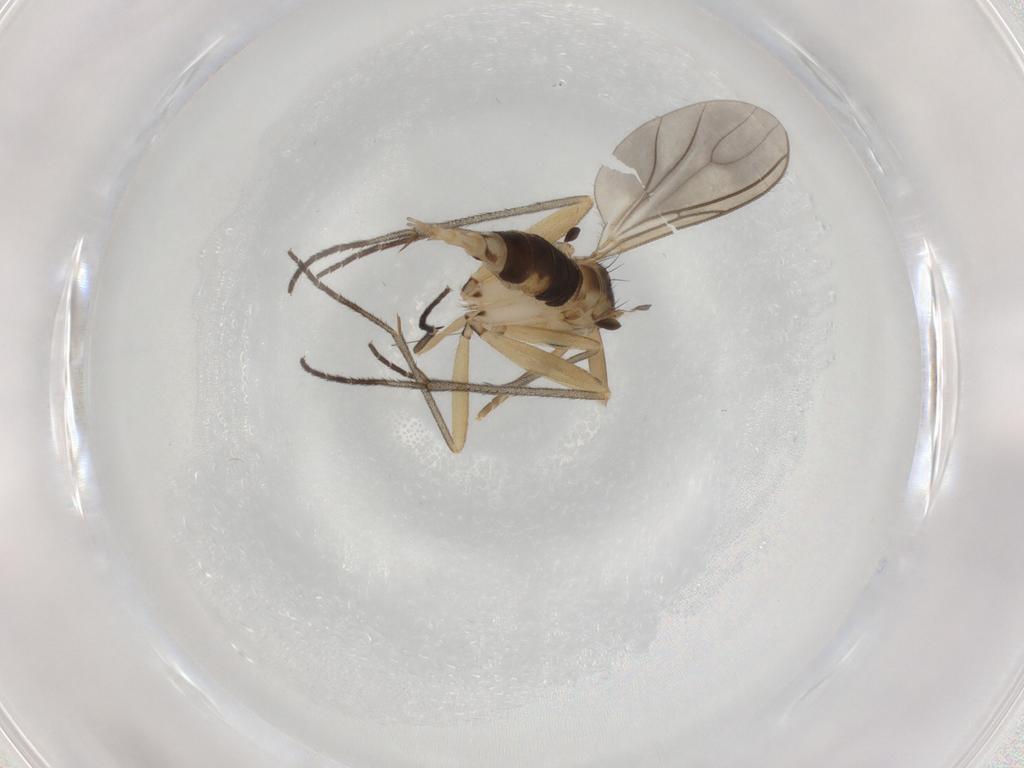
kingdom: Animalia
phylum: Arthropoda
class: Insecta
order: Diptera
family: Sciaridae
